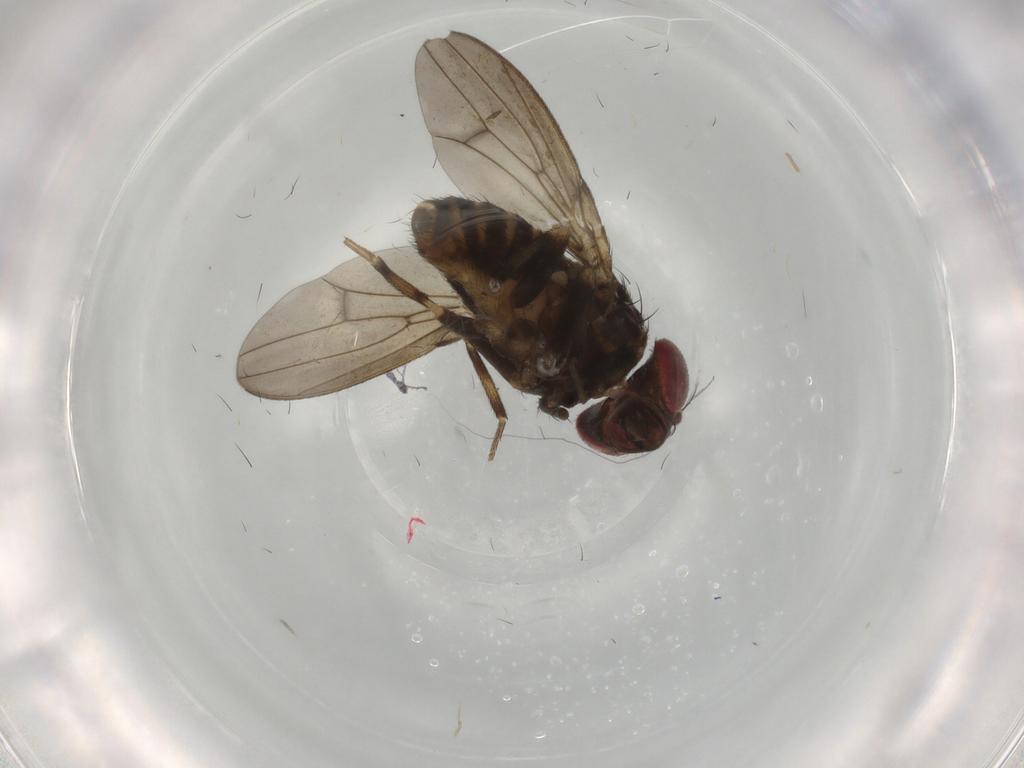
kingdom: Animalia
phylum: Arthropoda
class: Insecta
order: Diptera
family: Drosophilidae
